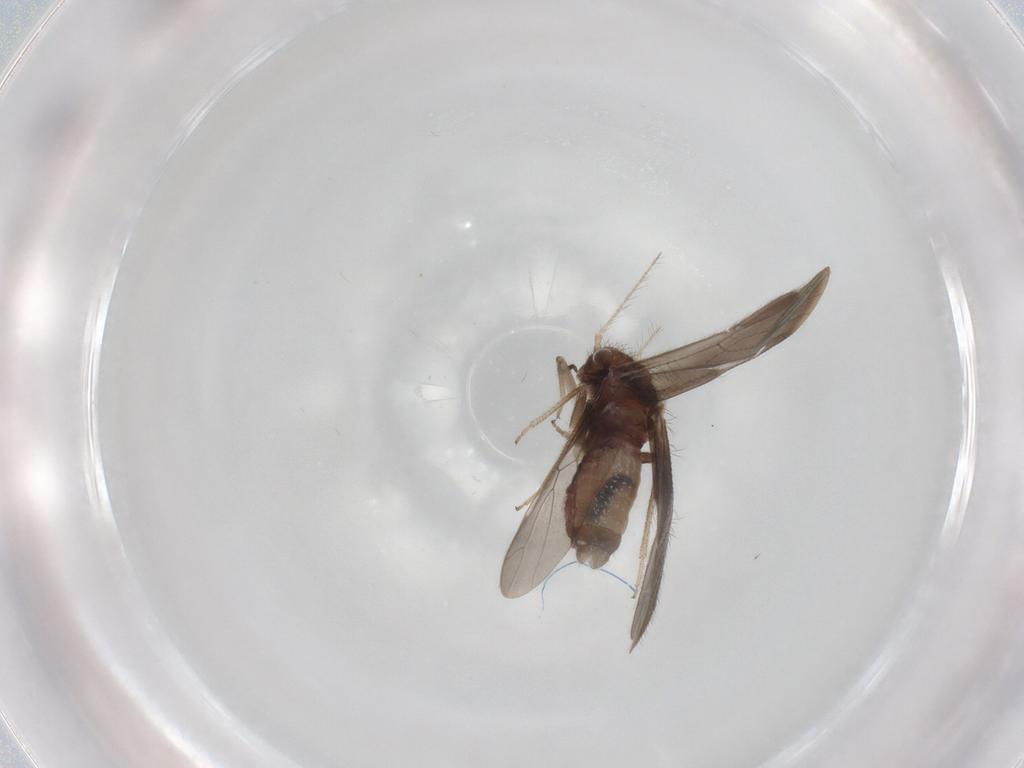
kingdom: Animalia
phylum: Arthropoda
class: Insecta
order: Psocodea
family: Peripsocidae
